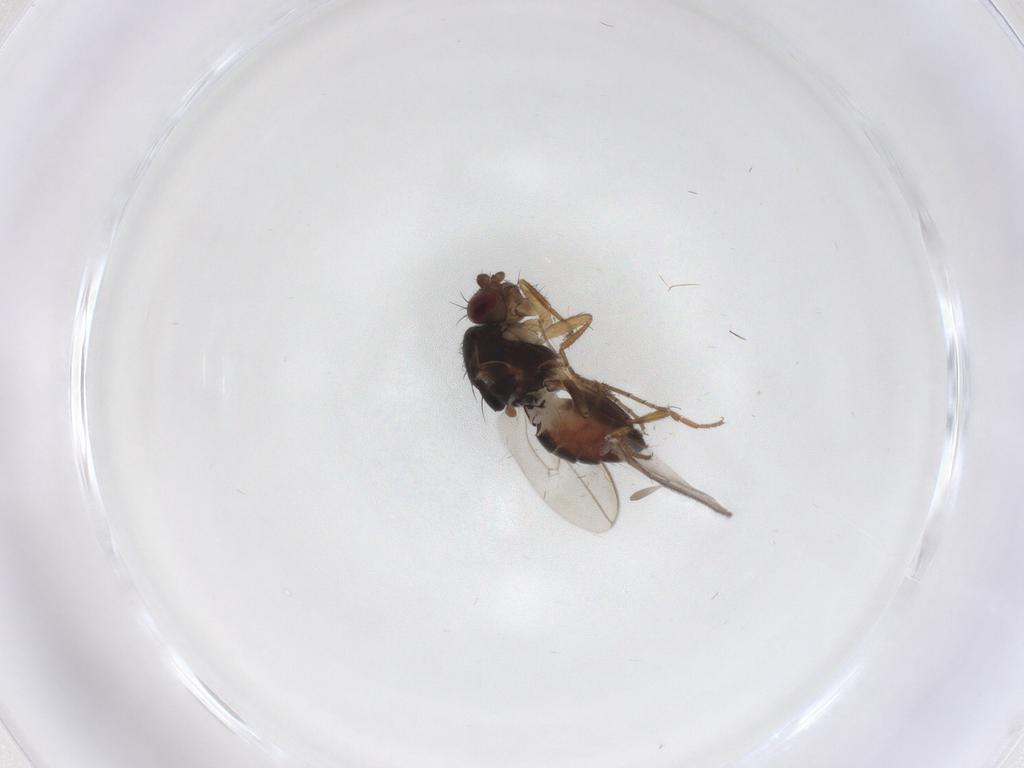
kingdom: Animalia
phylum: Arthropoda
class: Insecta
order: Diptera
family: Sphaeroceridae
